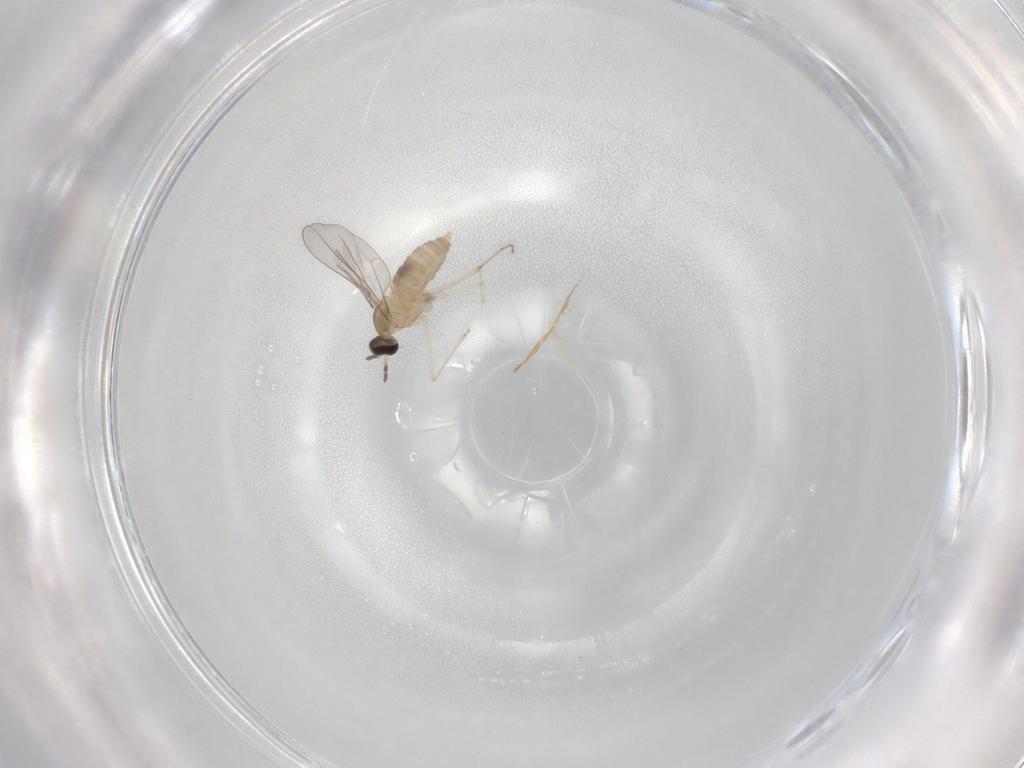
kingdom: Animalia
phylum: Arthropoda
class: Insecta
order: Diptera
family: Cecidomyiidae
